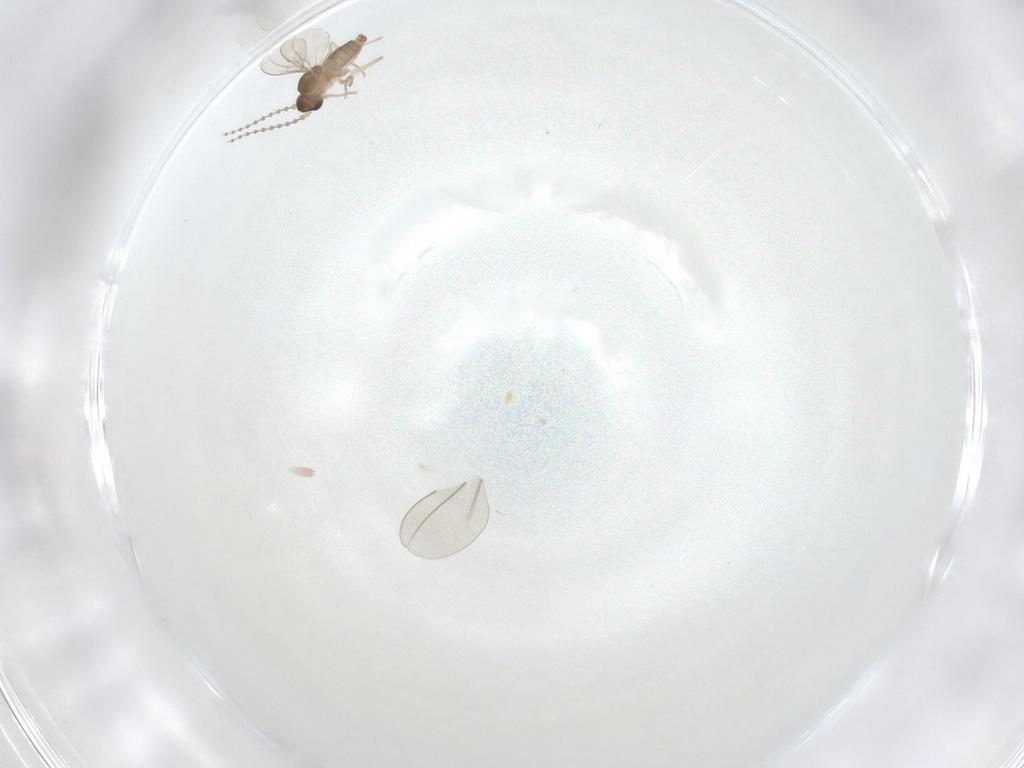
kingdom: Animalia
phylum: Arthropoda
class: Insecta
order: Diptera
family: Cecidomyiidae
